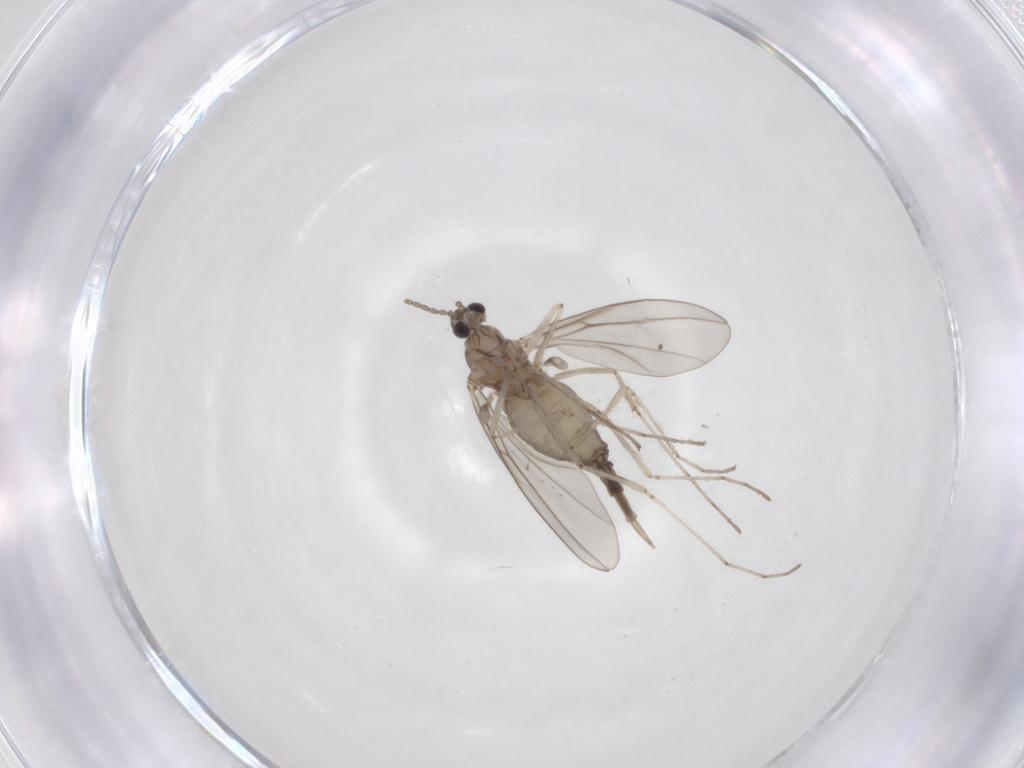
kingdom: Animalia
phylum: Arthropoda
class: Insecta
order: Diptera
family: Cecidomyiidae
